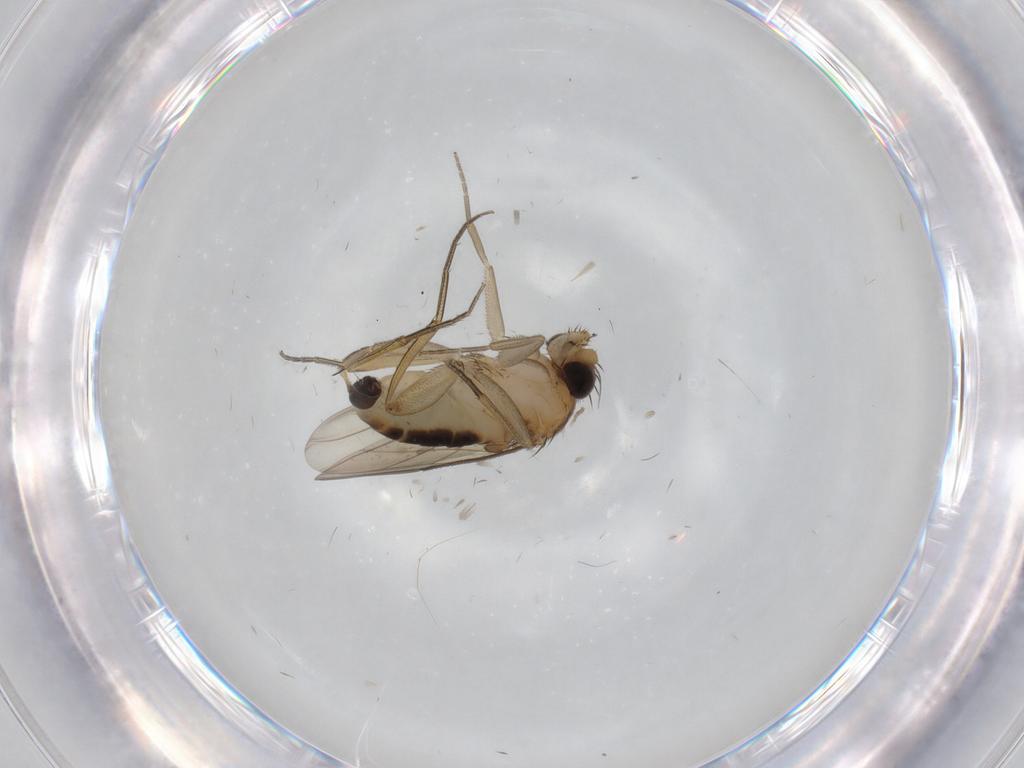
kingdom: Animalia
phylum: Arthropoda
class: Insecta
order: Diptera
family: Phoridae
